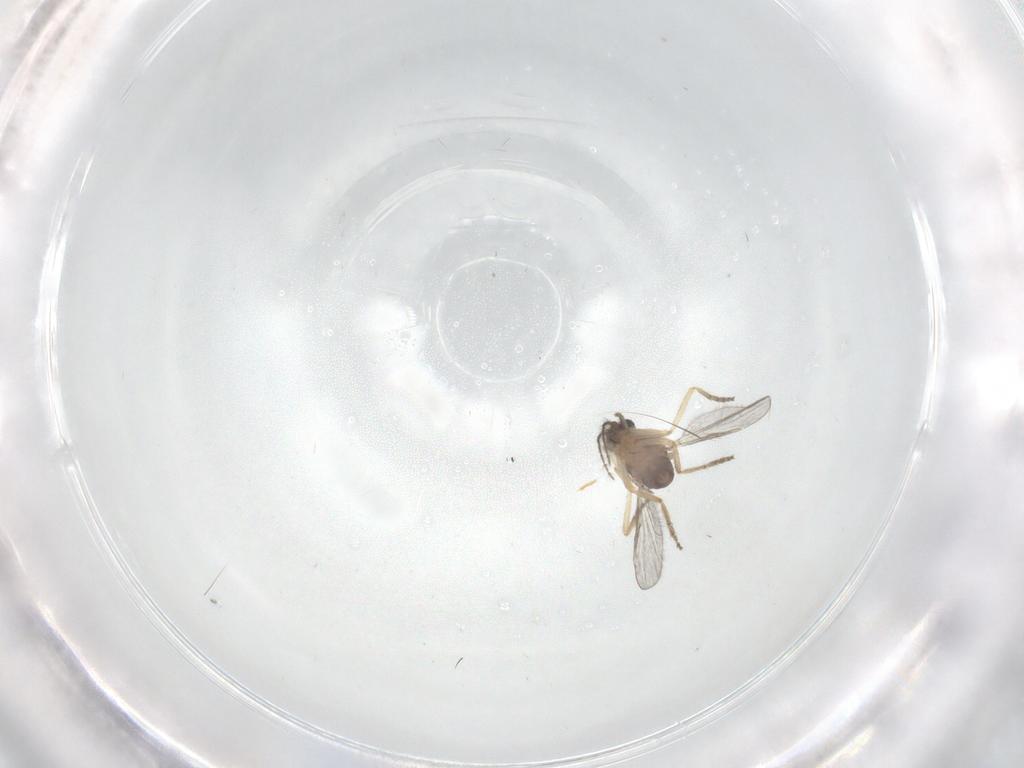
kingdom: Animalia
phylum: Arthropoda
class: Insecta
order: Diptera
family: Ceratopogonidae
